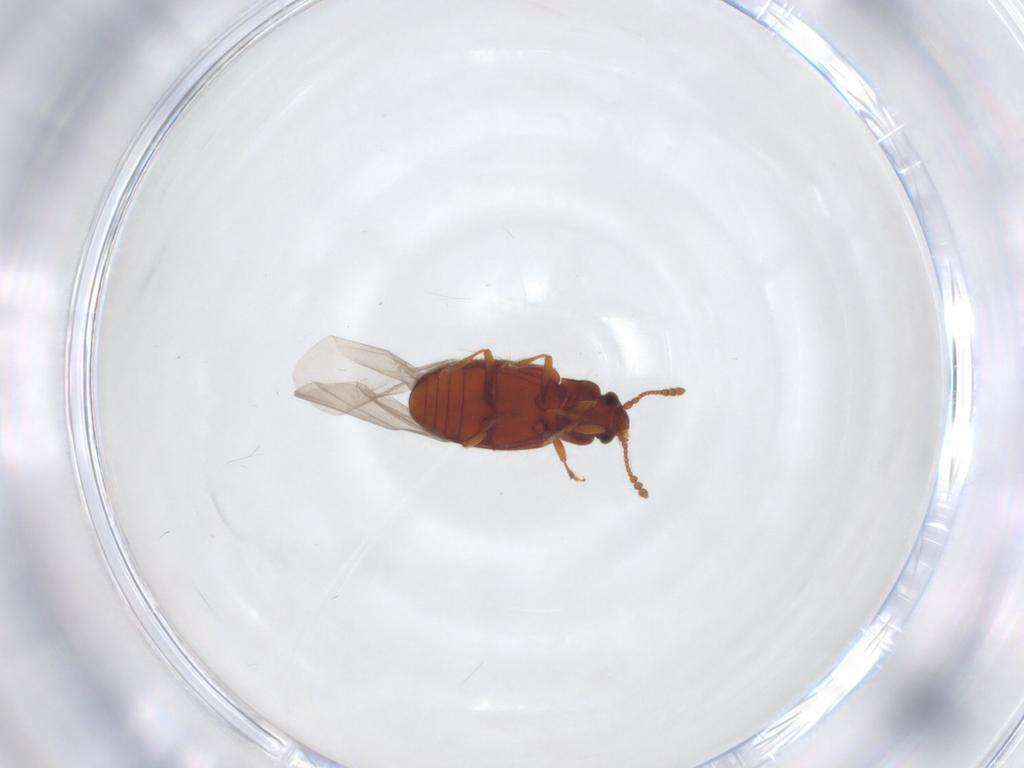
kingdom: Animalia
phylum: Arthropoda
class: Insecta
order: Coleoptera
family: Cryptophagidae
